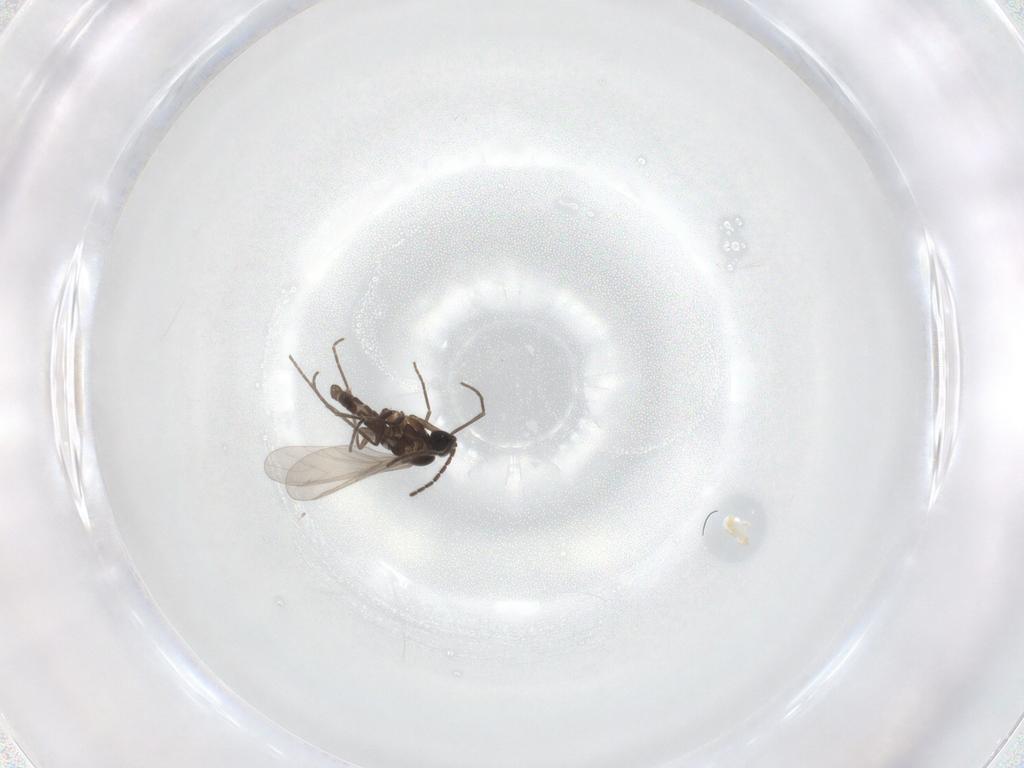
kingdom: Animalia
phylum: Arthropoda
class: Insecta
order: Diptera
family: Sciaridae
